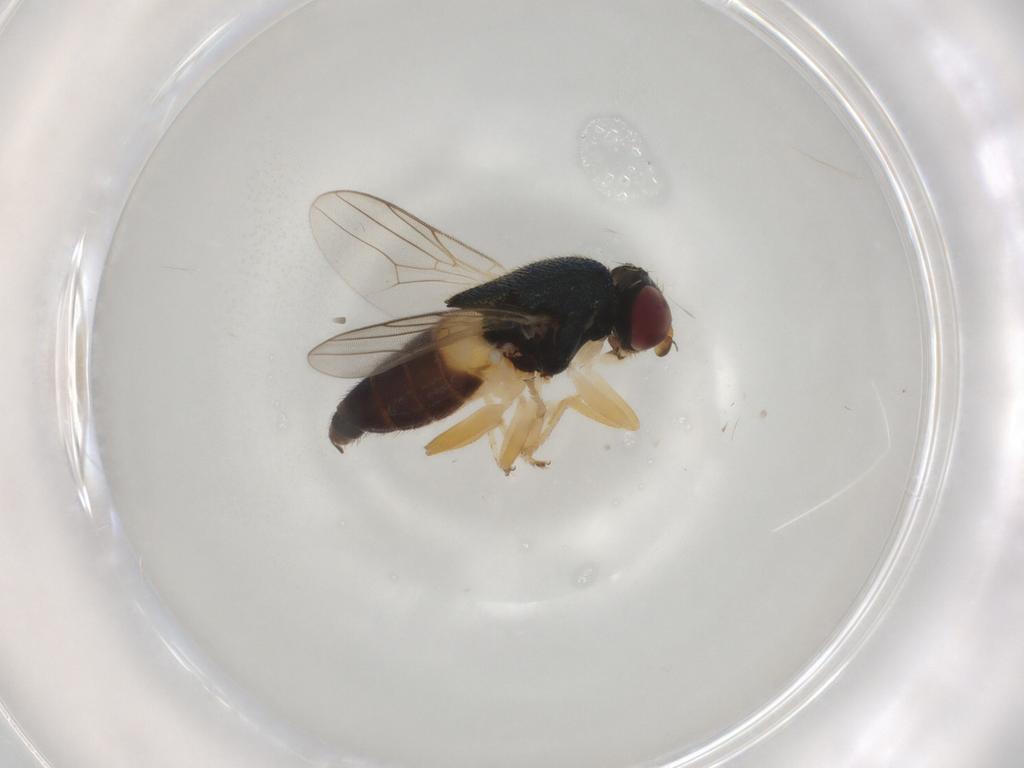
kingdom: Animalia
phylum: Arthropoda
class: Insecta
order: Diptera
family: Chloropidae
